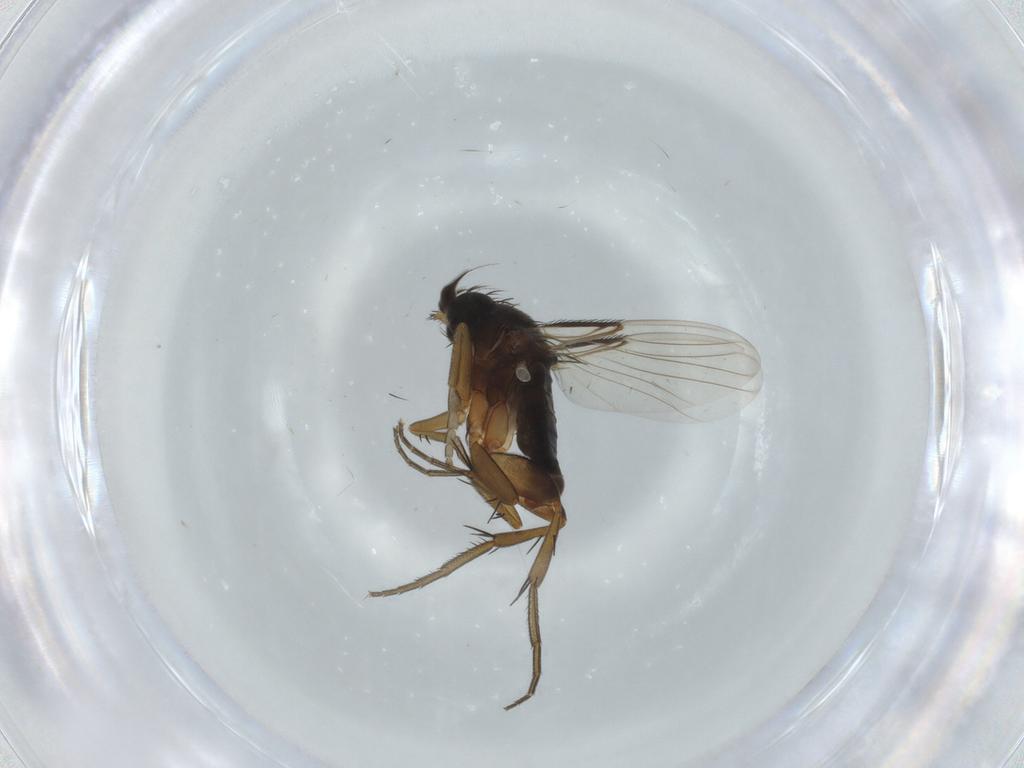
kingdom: Animalia
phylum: Arthropoda
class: Insecta
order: Diptera
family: Phoridae
